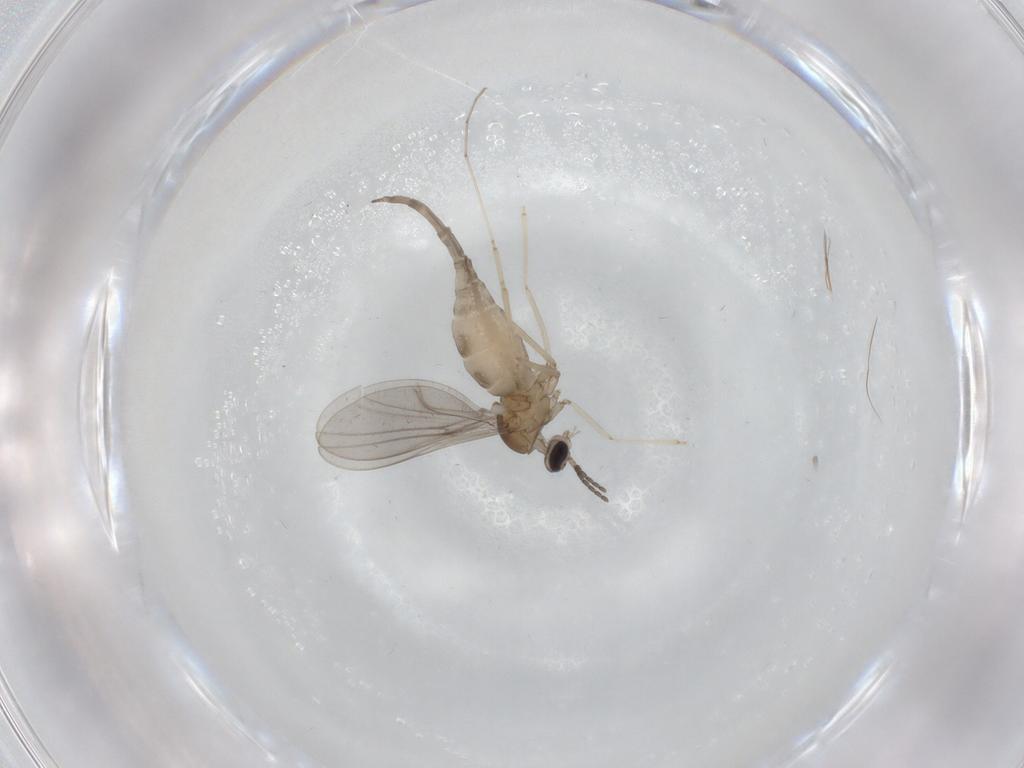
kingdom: Animalia
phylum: Arthropoda
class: Insecta
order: Diptera
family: Cecidomyiidae
